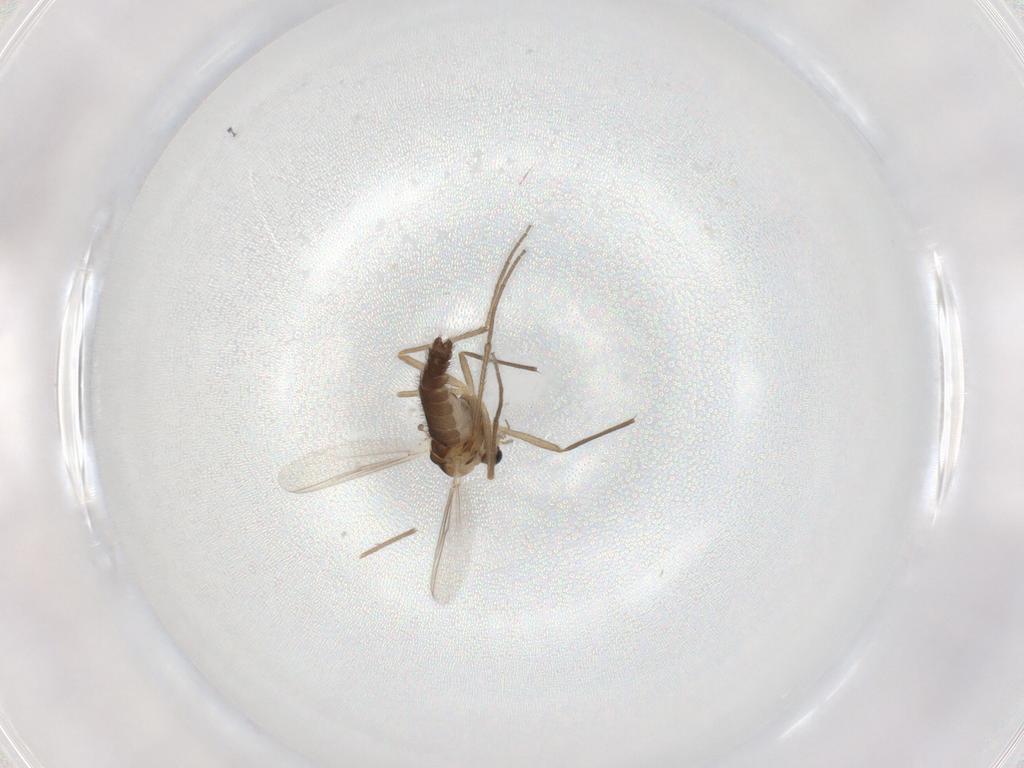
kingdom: Animalia
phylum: Arthropoda
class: Insecta
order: Diptera
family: Chironomidae
